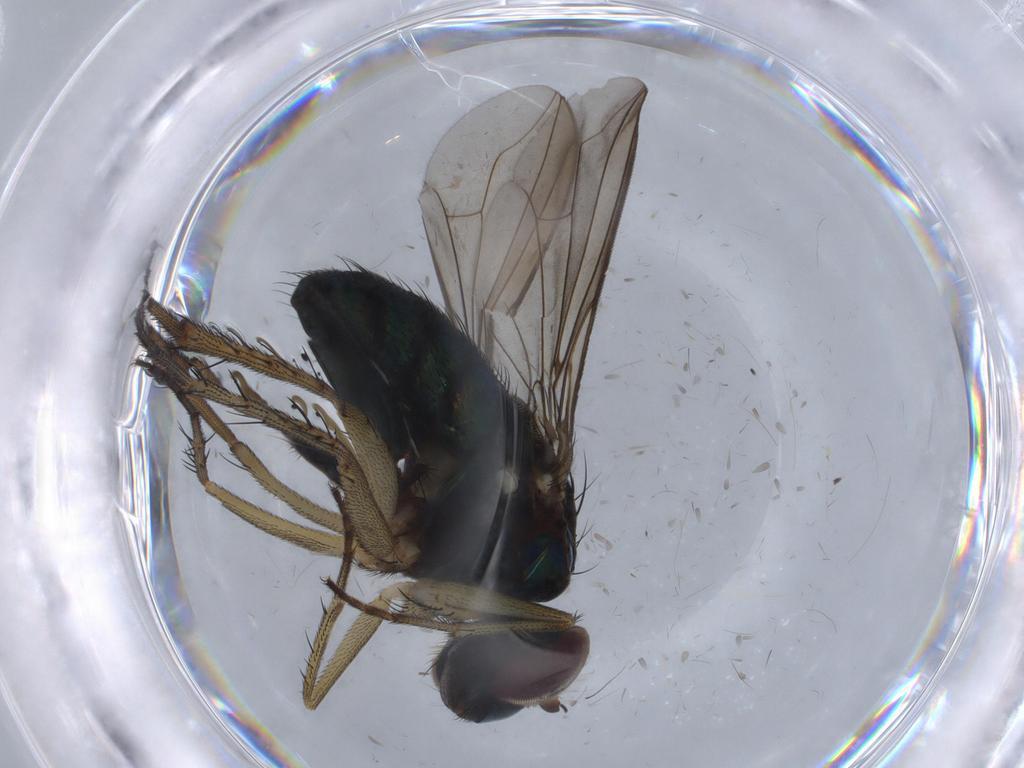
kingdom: Animalia
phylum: Arthropoda
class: Insecta
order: Diptera
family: Dolichopodidae
